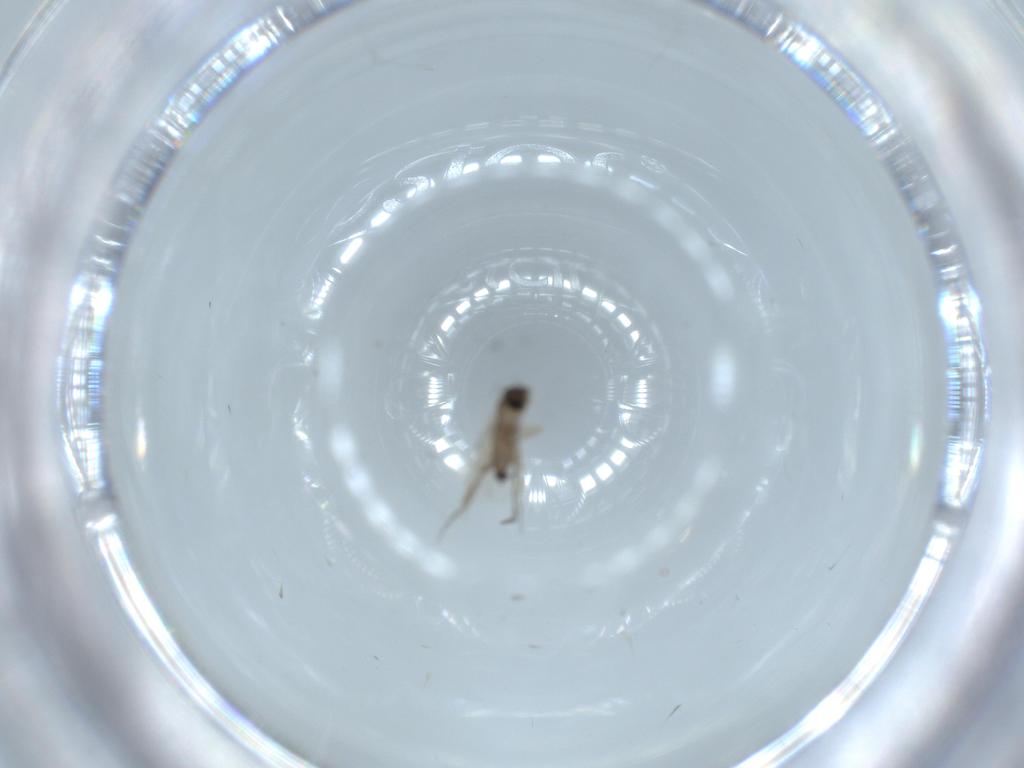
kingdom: Animalia
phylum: Arthropoda
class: Insecta
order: Diptera
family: Phoridae
